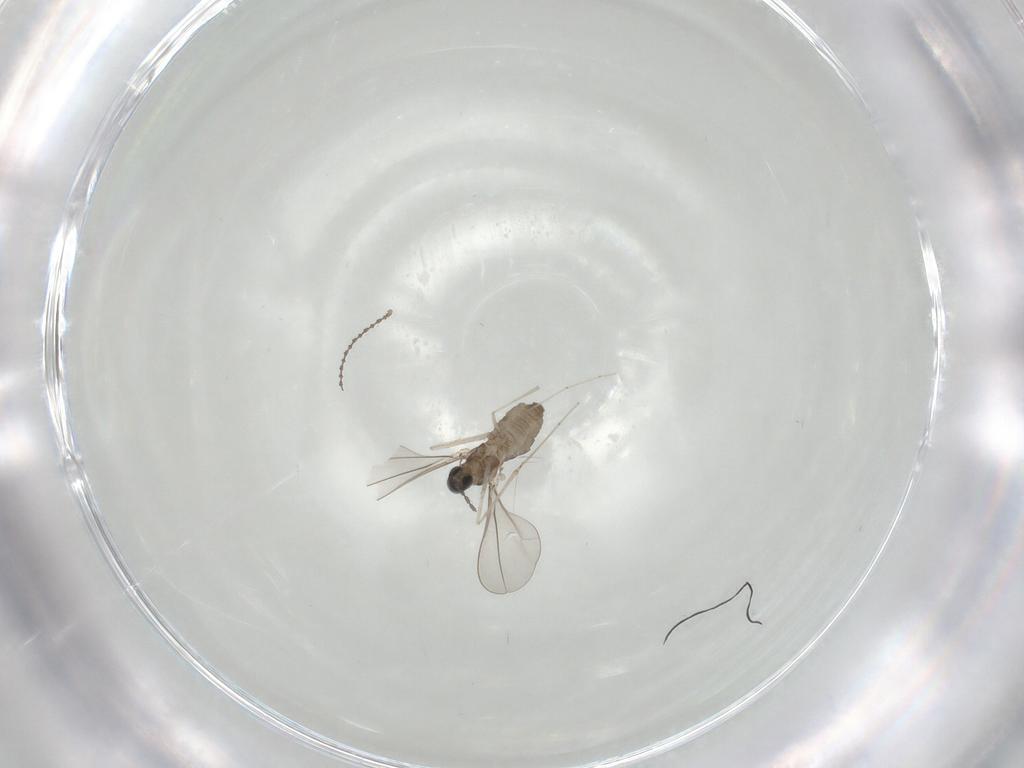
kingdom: Animalia
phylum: Arthropoda
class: Insecta
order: Diptera
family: Cecidomyiidae
